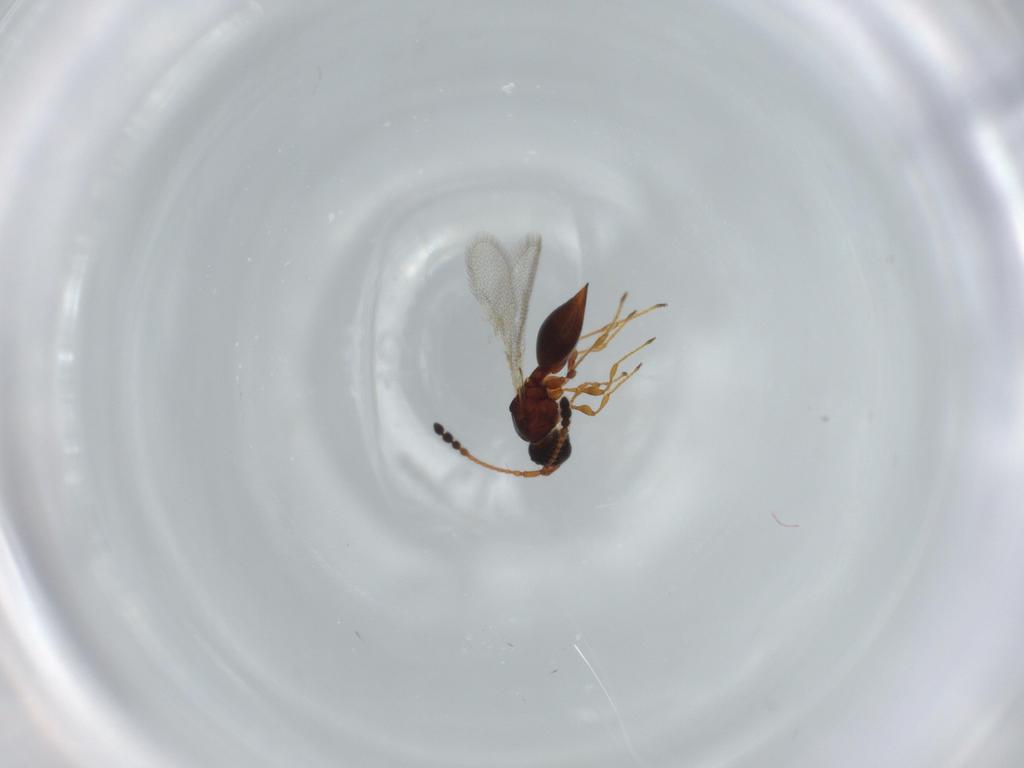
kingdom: Animalia
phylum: Arthropoda
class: Insecta
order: Hymenoptera
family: Diapriidae
